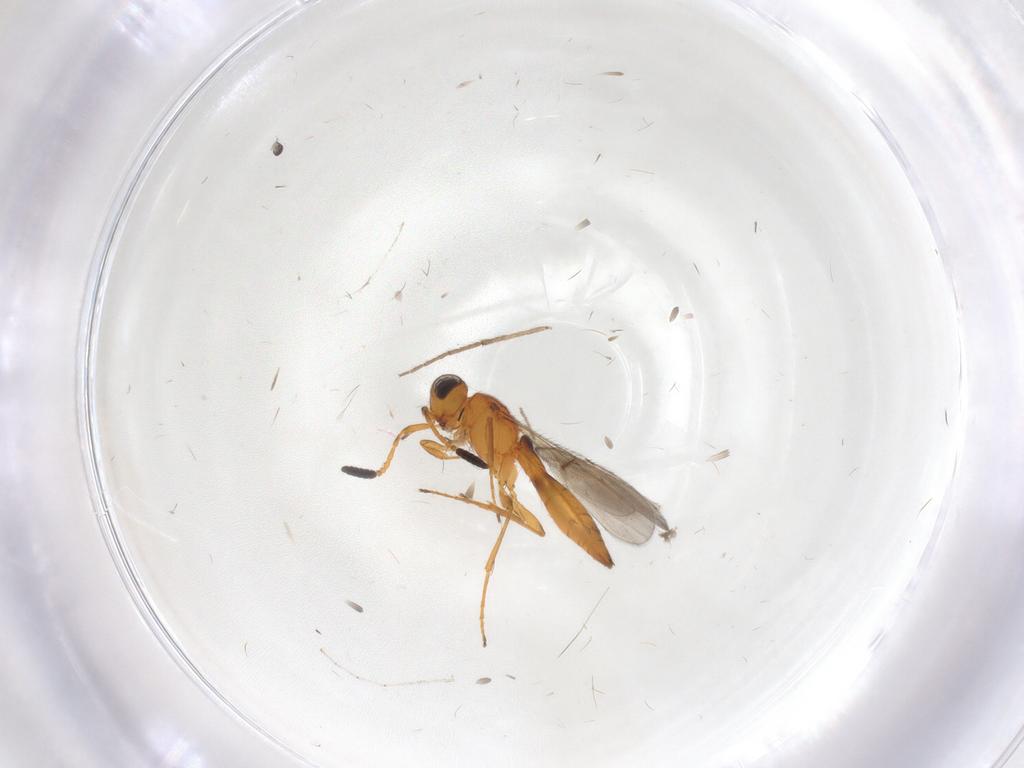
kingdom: Animalia
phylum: Arthropoda
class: Insecta
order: Hymenoptera
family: Scelionidae
